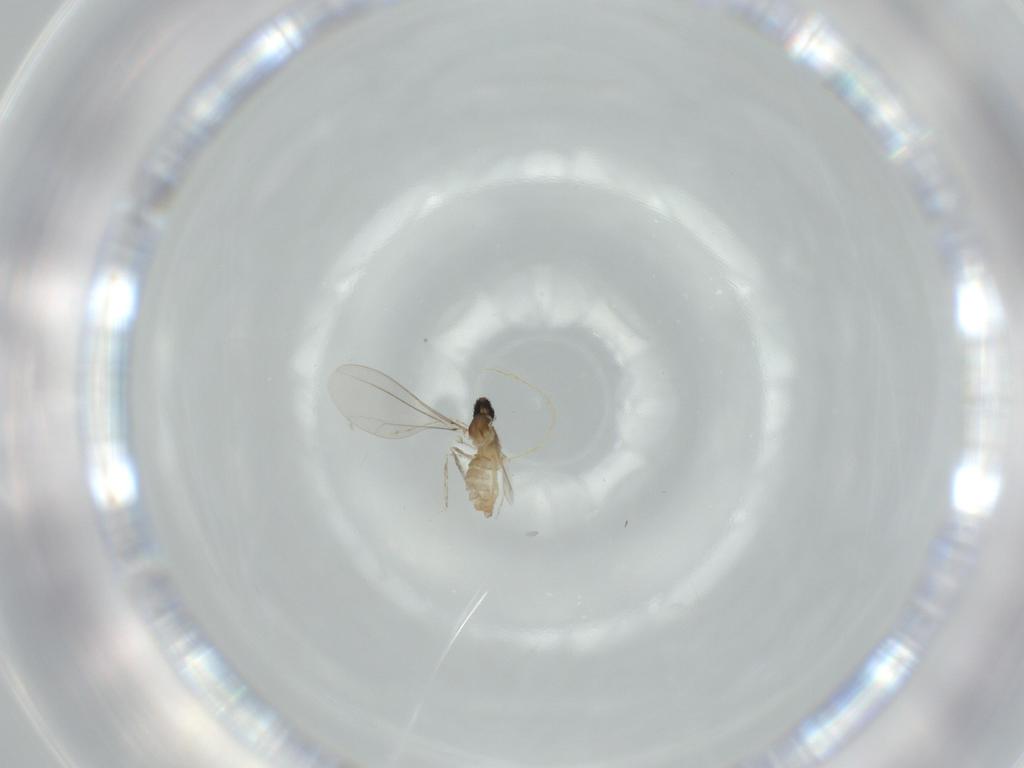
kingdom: Animalia
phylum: Arthropoda
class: Insecta
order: Diptera
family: Cecidomyiidae
